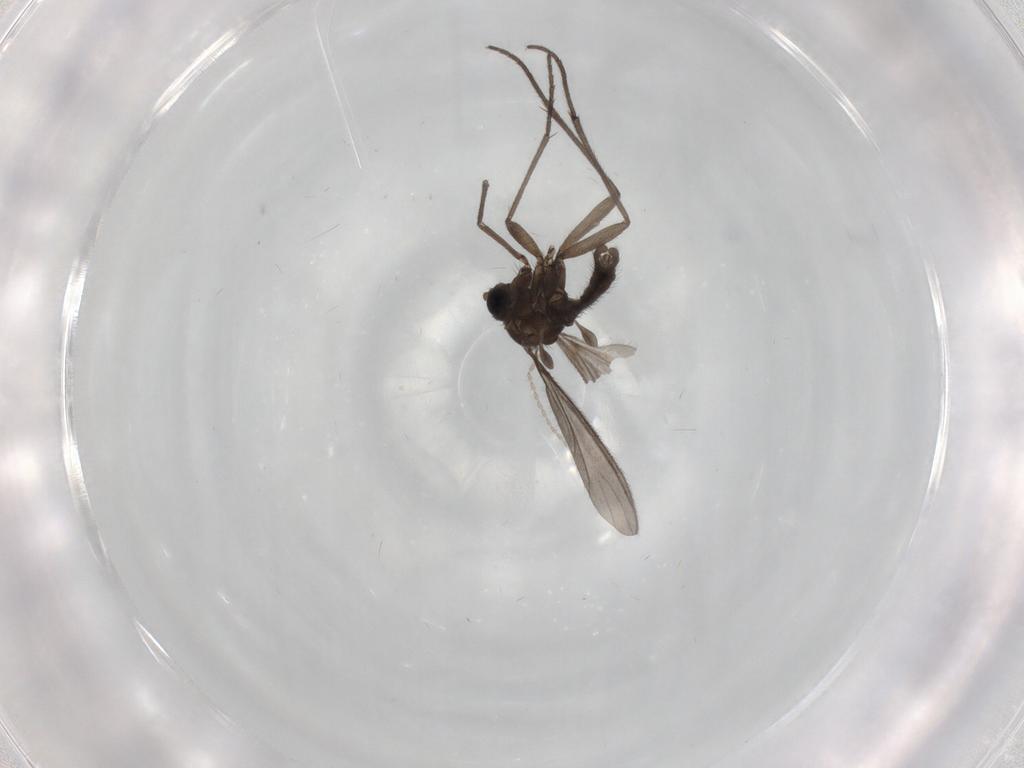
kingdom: Animalia
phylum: Arthropoda
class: Insecta
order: Diptera
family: Sciaridae
